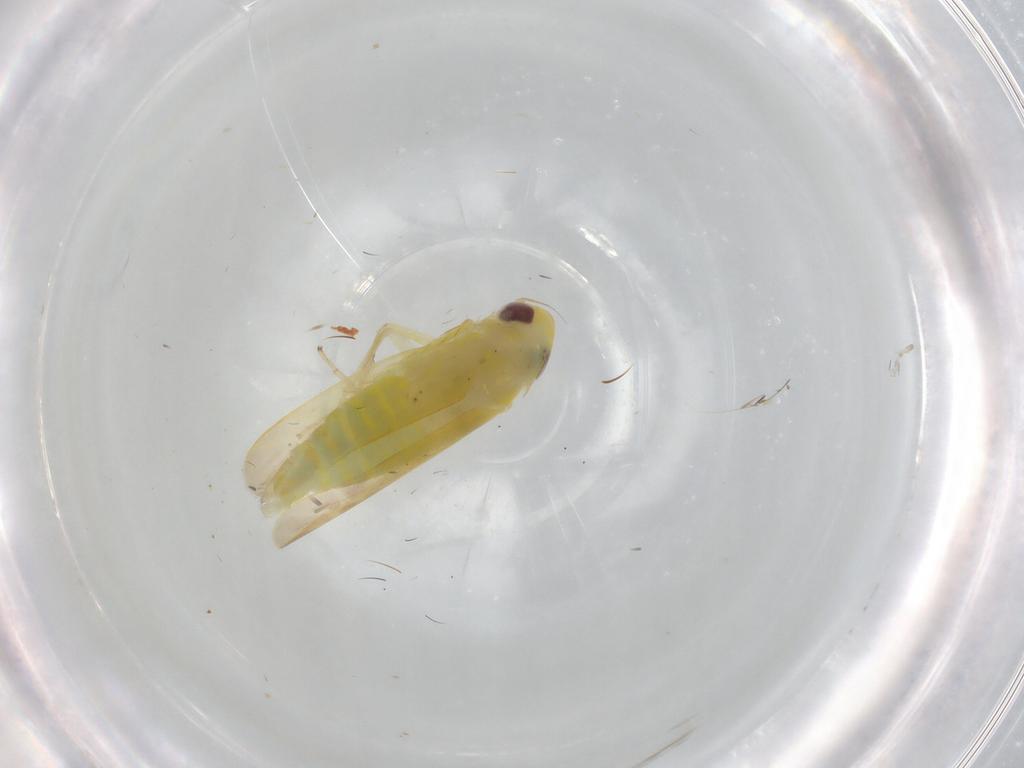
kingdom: Animalia
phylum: Arthropoda
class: Insecta
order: Hemiptera
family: Cicadellidae
